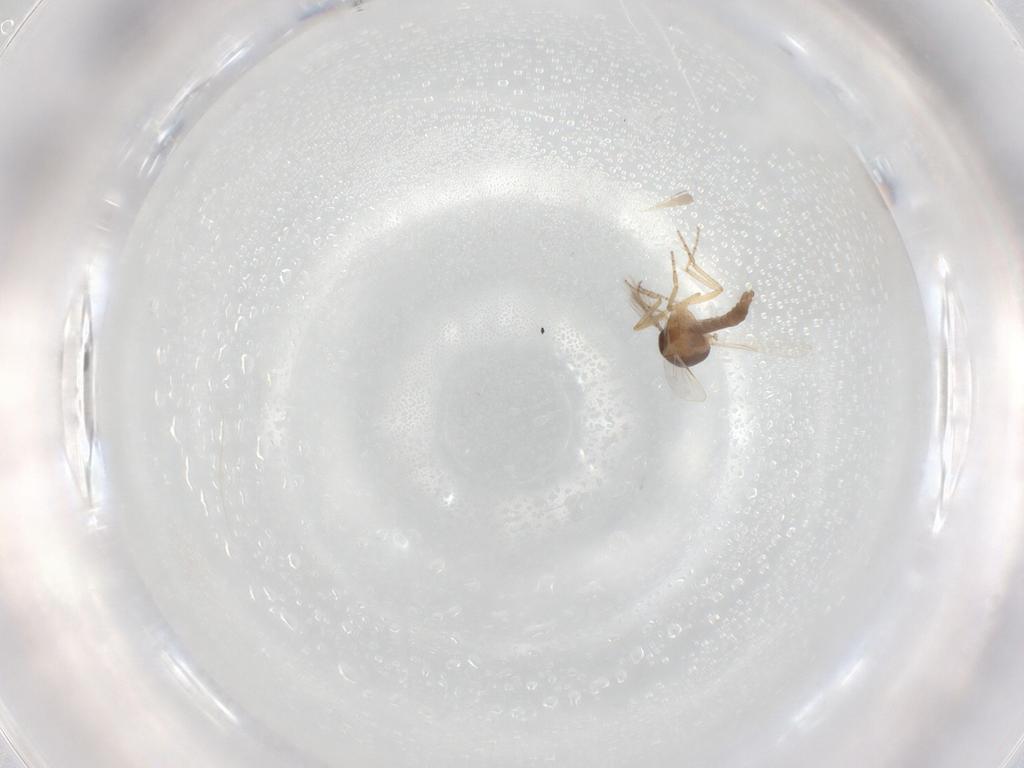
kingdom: Animalia
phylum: Arthropoda
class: Insecta
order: Diptera
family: Ceratopogonidae
